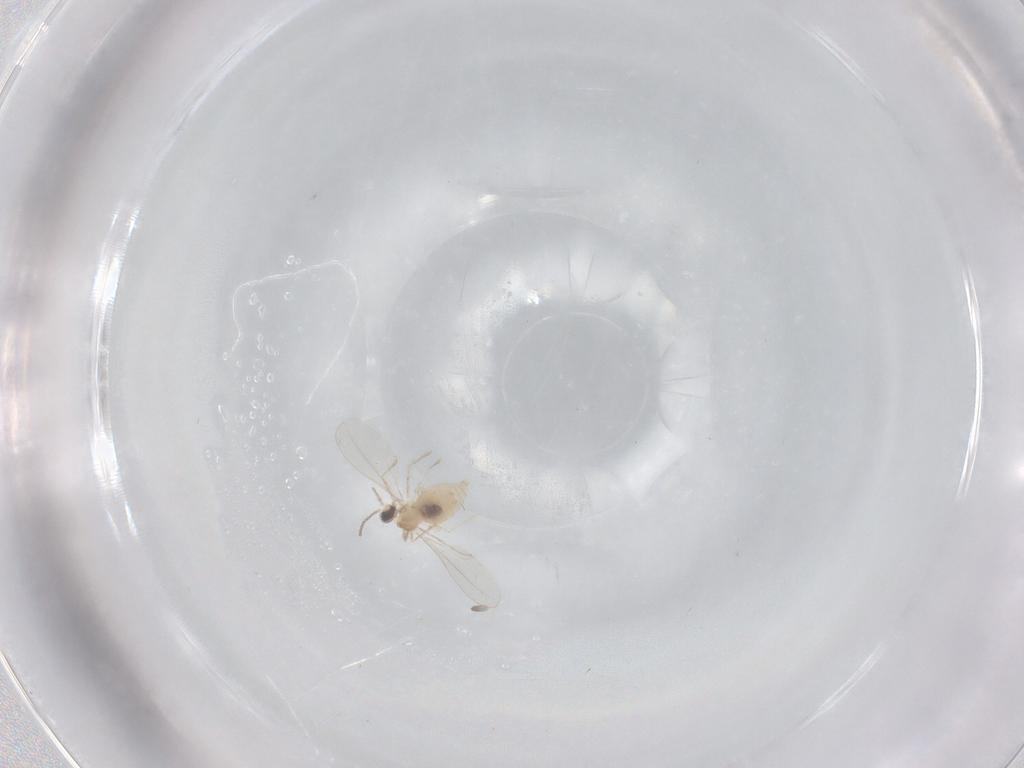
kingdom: Animalia
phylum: Arthropoda
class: Insecta
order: Diptera
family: Cecidomyiidae
